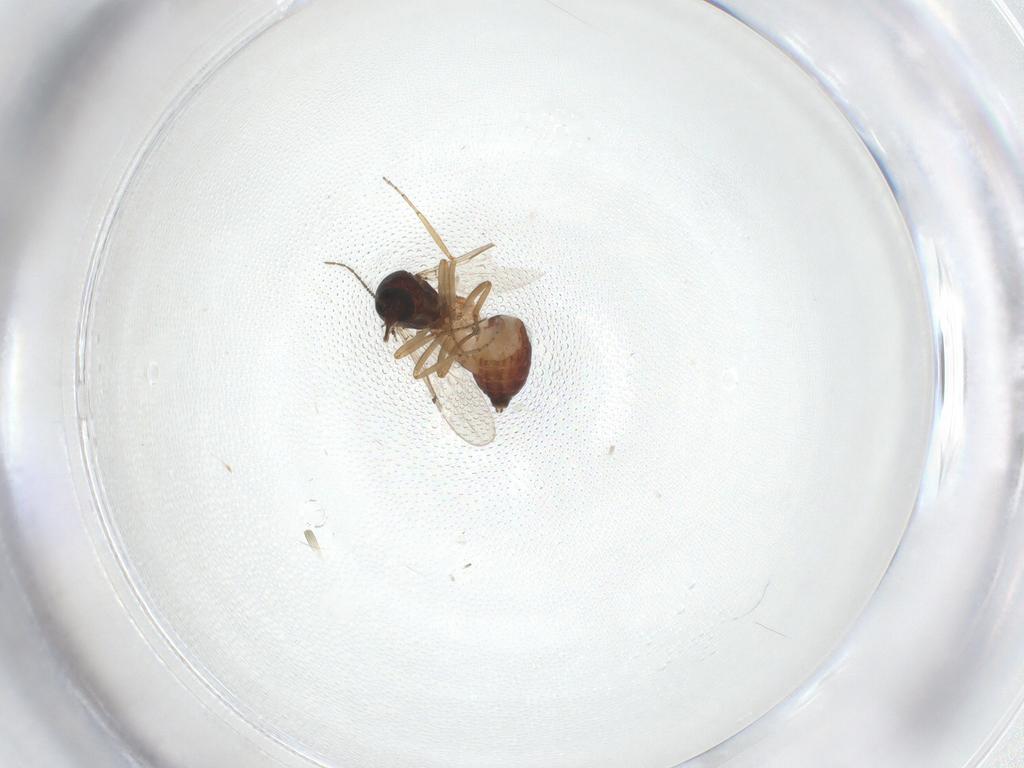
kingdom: Animalia
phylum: Arthropoda
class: Insecta
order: Diptera
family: Ceratopogonidae
